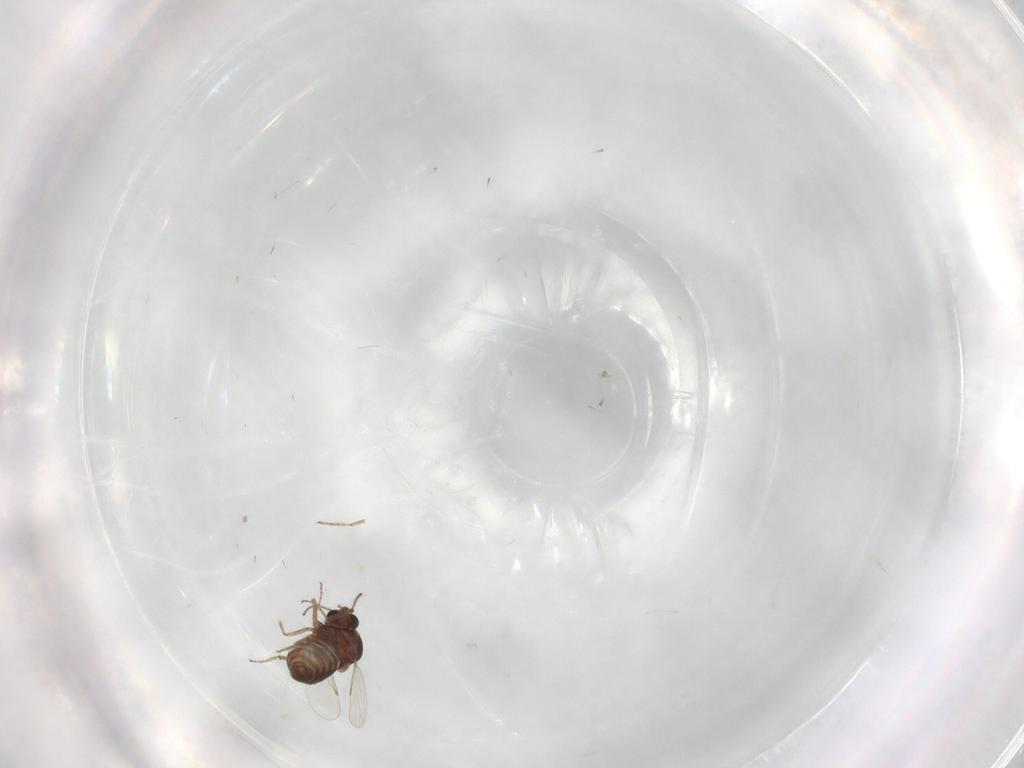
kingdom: Animalia
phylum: Arthropoda
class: Insecta
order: Diptera
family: Ceratopogonidae
